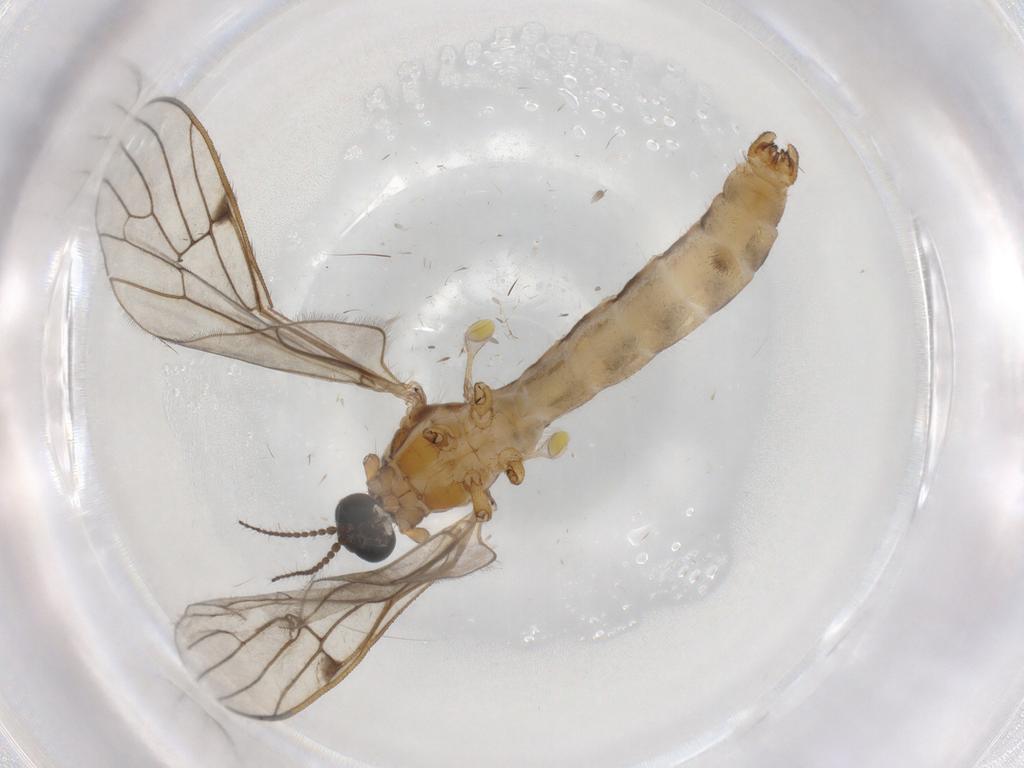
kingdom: Animalia
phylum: Arthropoda
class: Insecta
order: Diptera
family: Limoniidae
